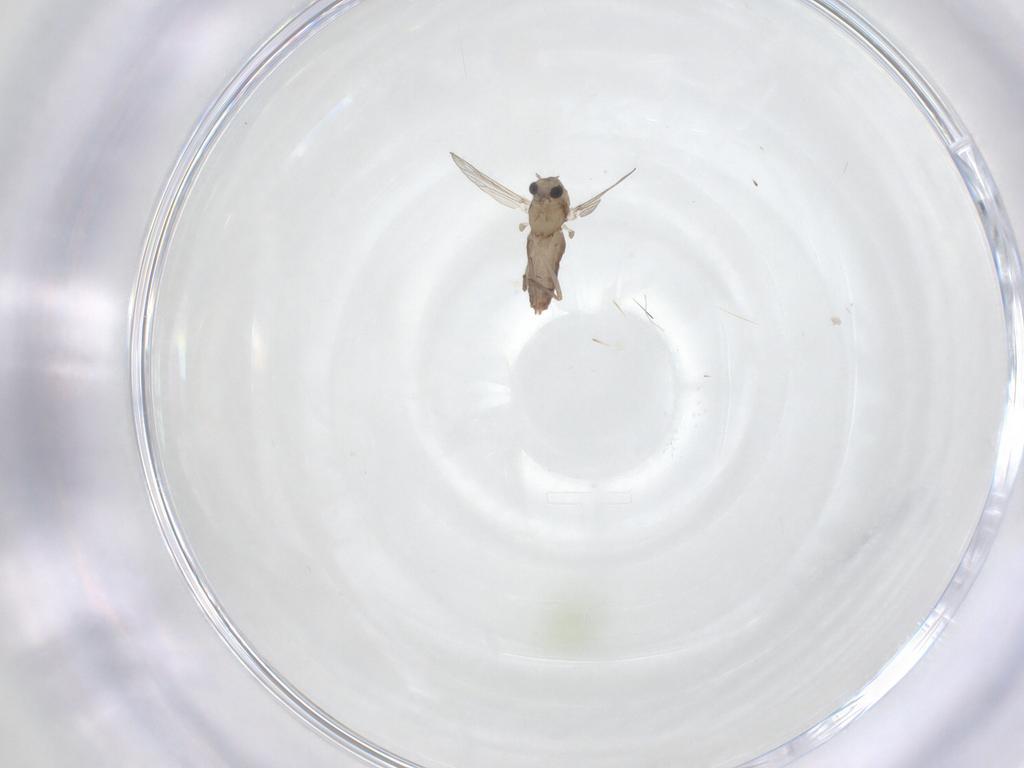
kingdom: Animalia
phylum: Arthropoda
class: Insecta
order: Diptera
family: Chironomidae
